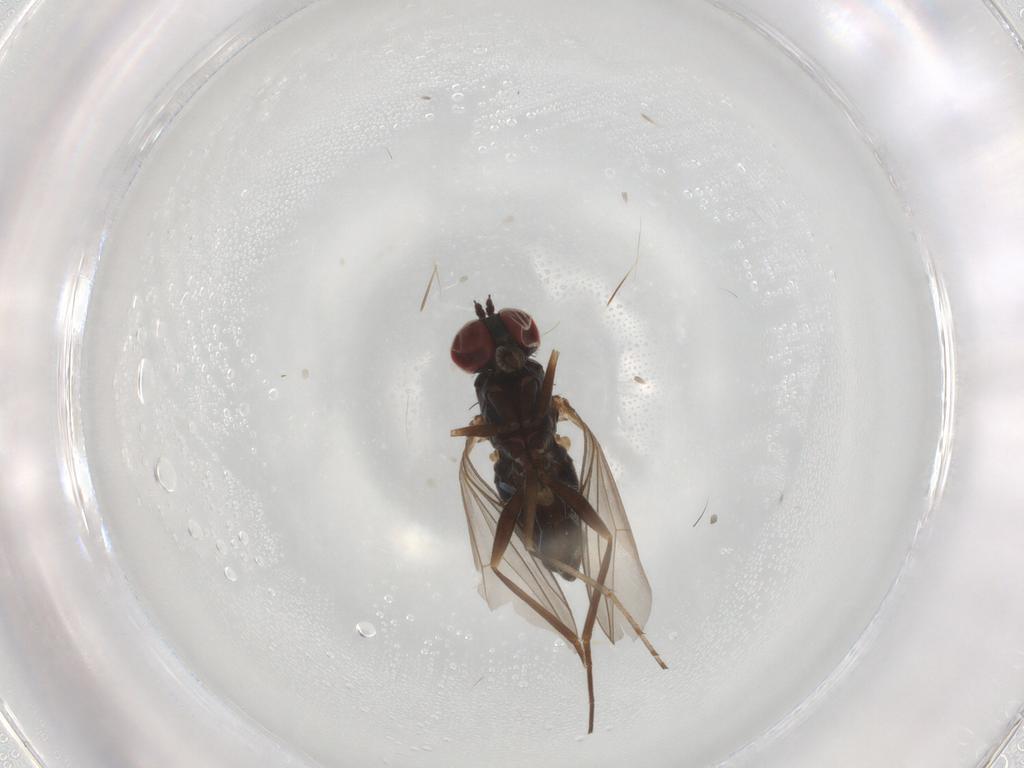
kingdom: Animalia
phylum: Arthropoda
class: Insecta
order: Diptera
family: Dolichopodidae
